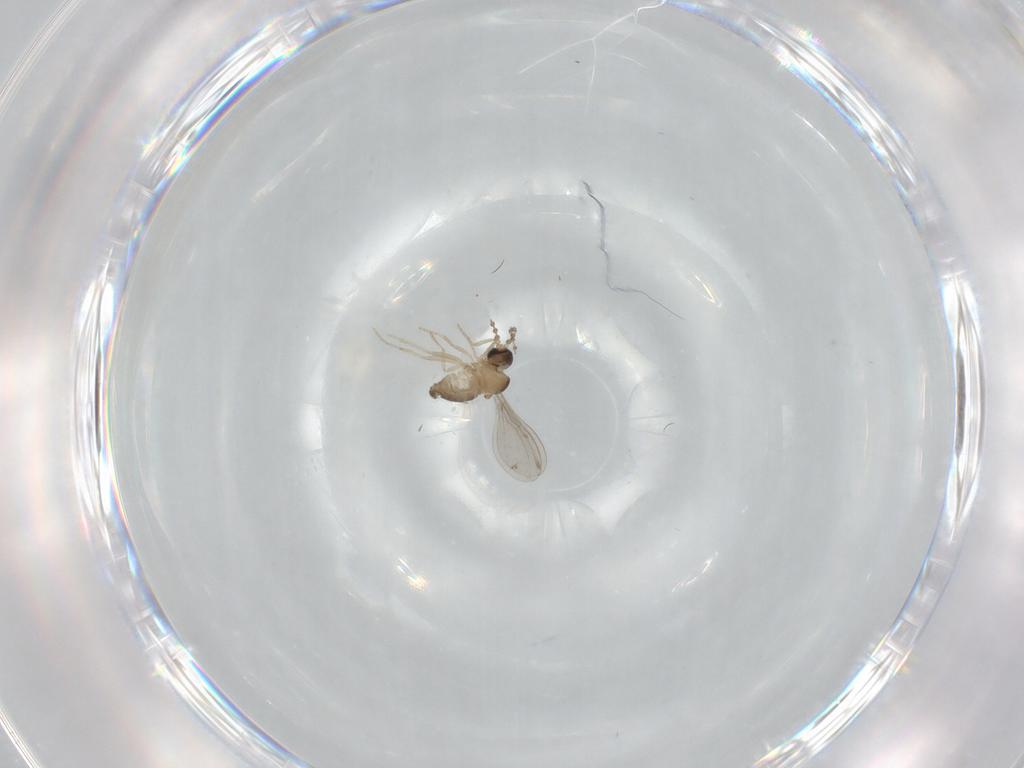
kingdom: Animalia
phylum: Arthropoda
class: Insecta
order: Diptera
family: Cecidomyiidae
